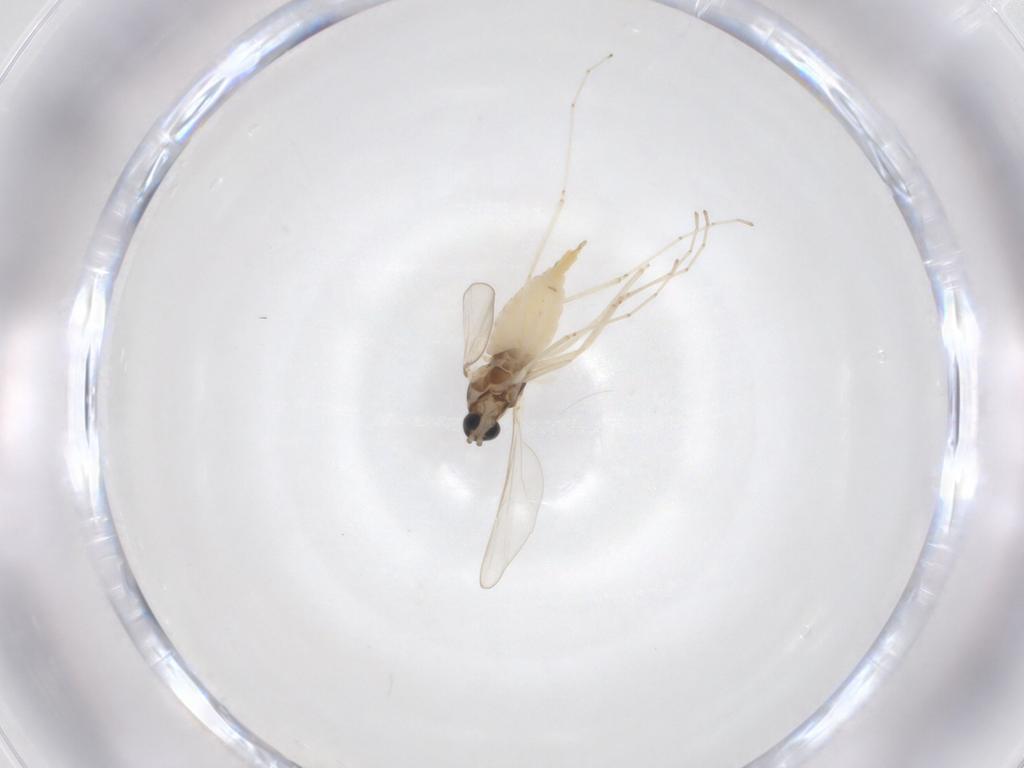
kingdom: Animalia
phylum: Arthropoda
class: Insecta
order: Diptera
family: Cecidomyiidae
